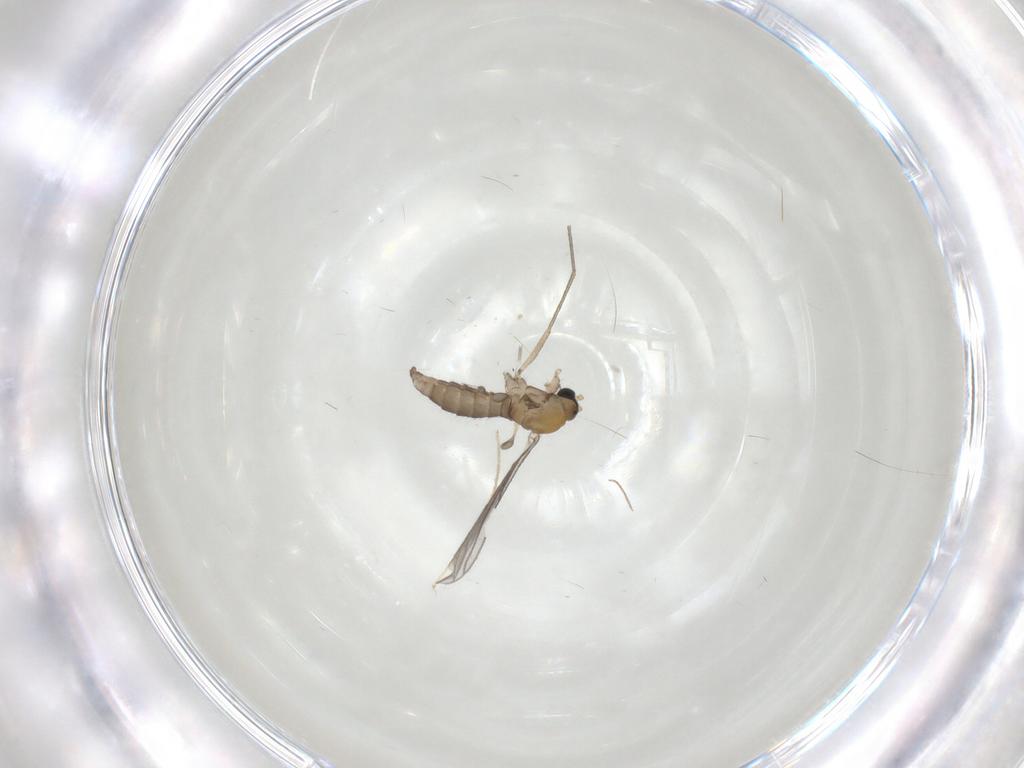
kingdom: Animalia
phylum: Arthropoda
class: Insecta
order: Diptera
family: Sciaridae
